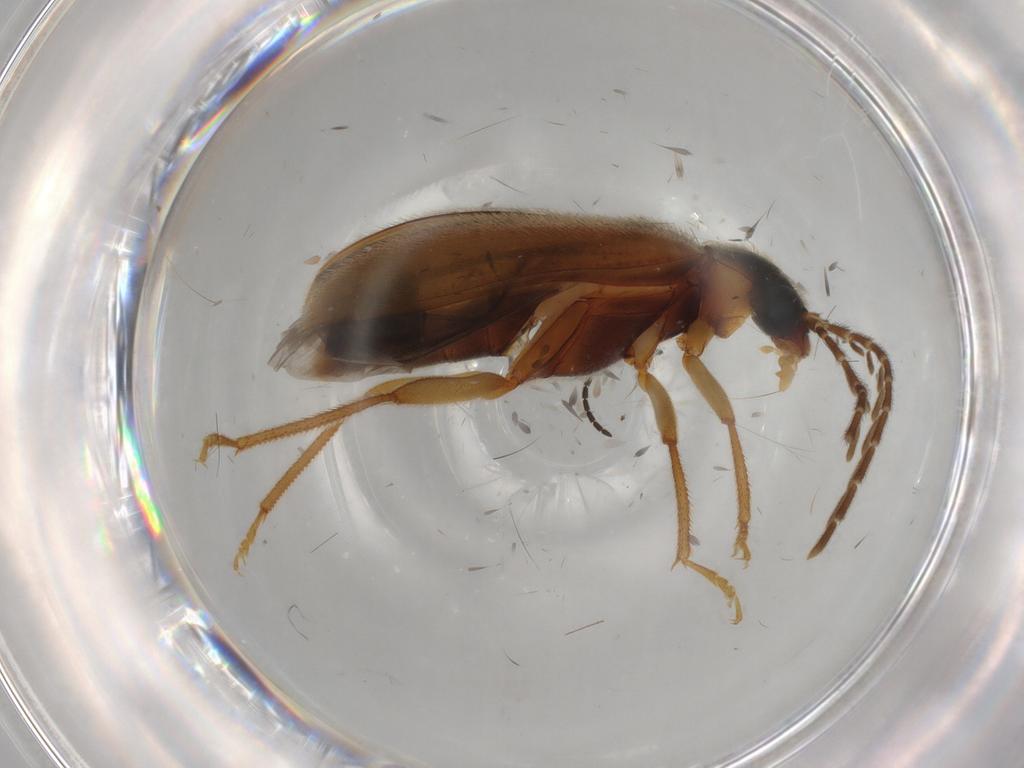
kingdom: Animalia
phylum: Arthropoda
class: Insecta
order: Coleoptera
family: Ptilodactylidae
